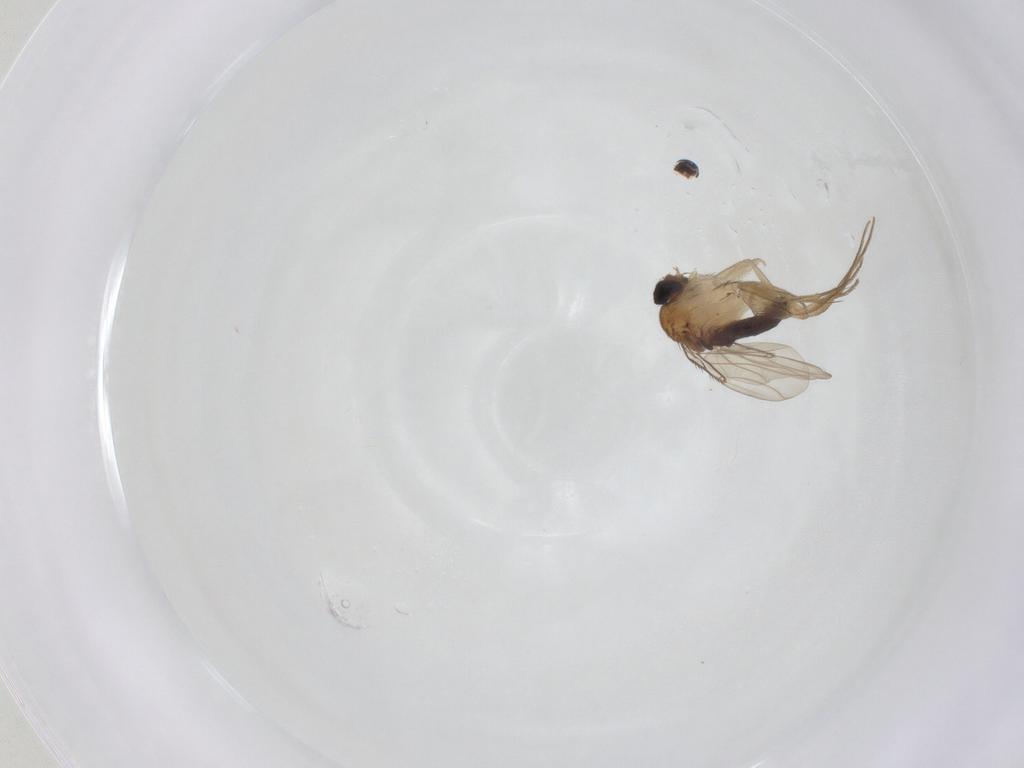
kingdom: Animalia
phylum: Arthropoda
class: Insecta
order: Diptera
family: Phoridae
